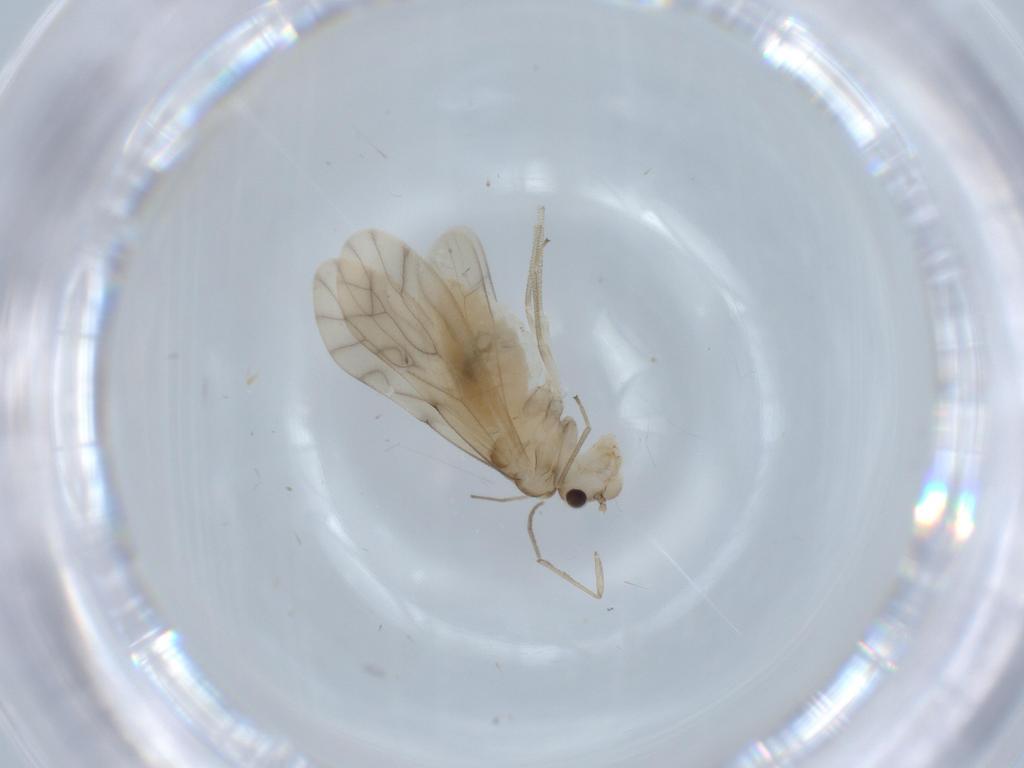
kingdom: Animalia
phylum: Arthropoda
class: Insecta
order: Psocodea
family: Caeciliusidae
